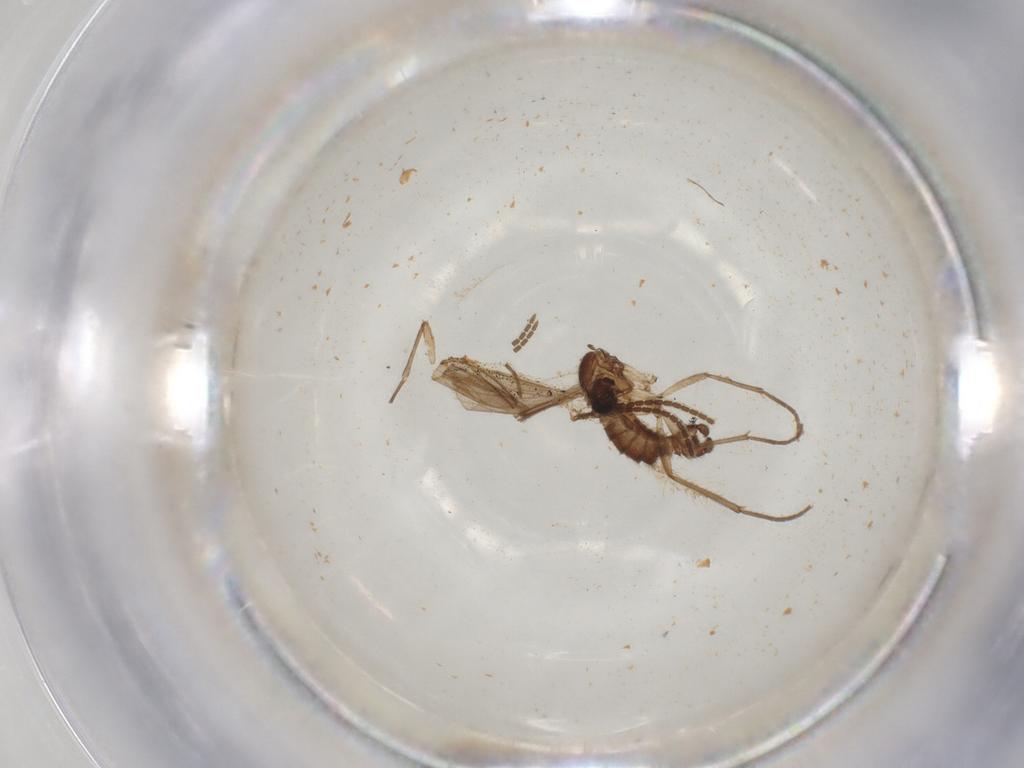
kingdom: Animalia
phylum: Arthropoda
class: Insecta
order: Diptera
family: Sciaridae
